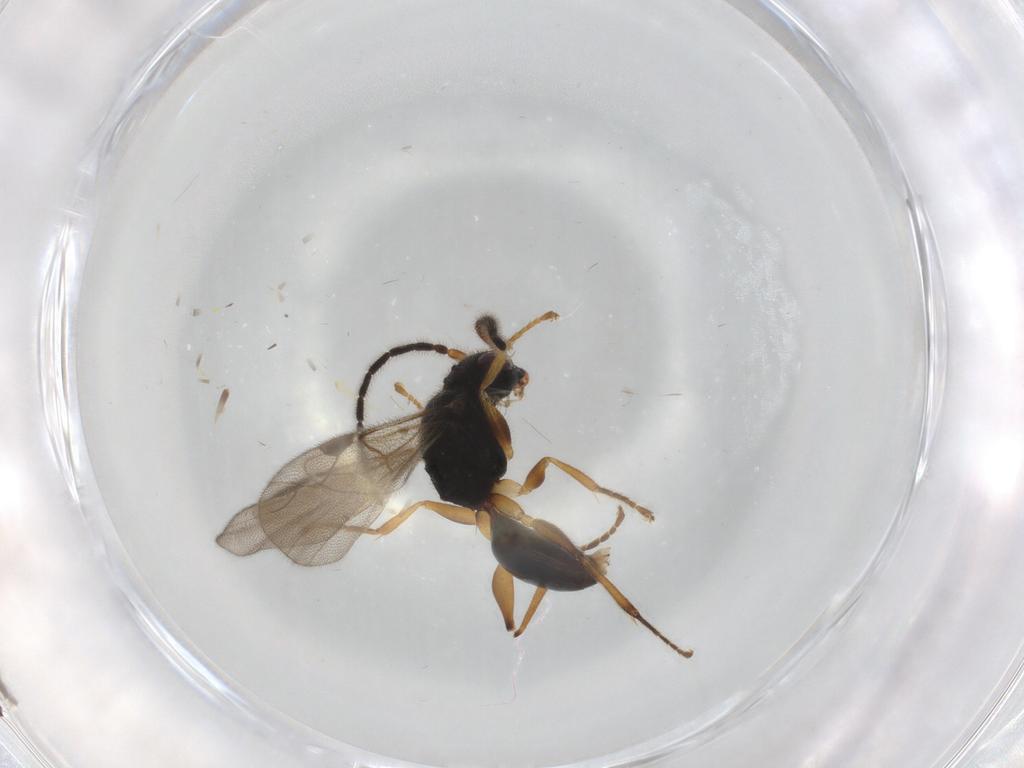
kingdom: Animalia
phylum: Arthropoda
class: Insecta
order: Hymenoptera
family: Dryinidae
